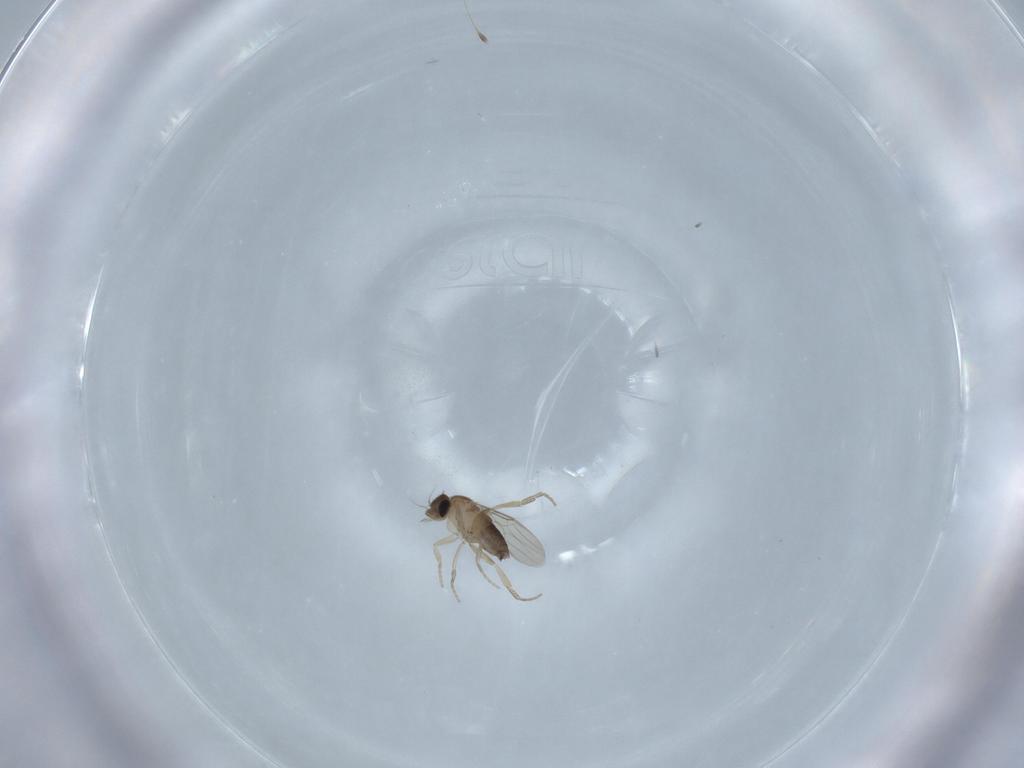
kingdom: Animalia
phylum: Arthropoda
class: Insecta
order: Diptera
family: Phoridae
